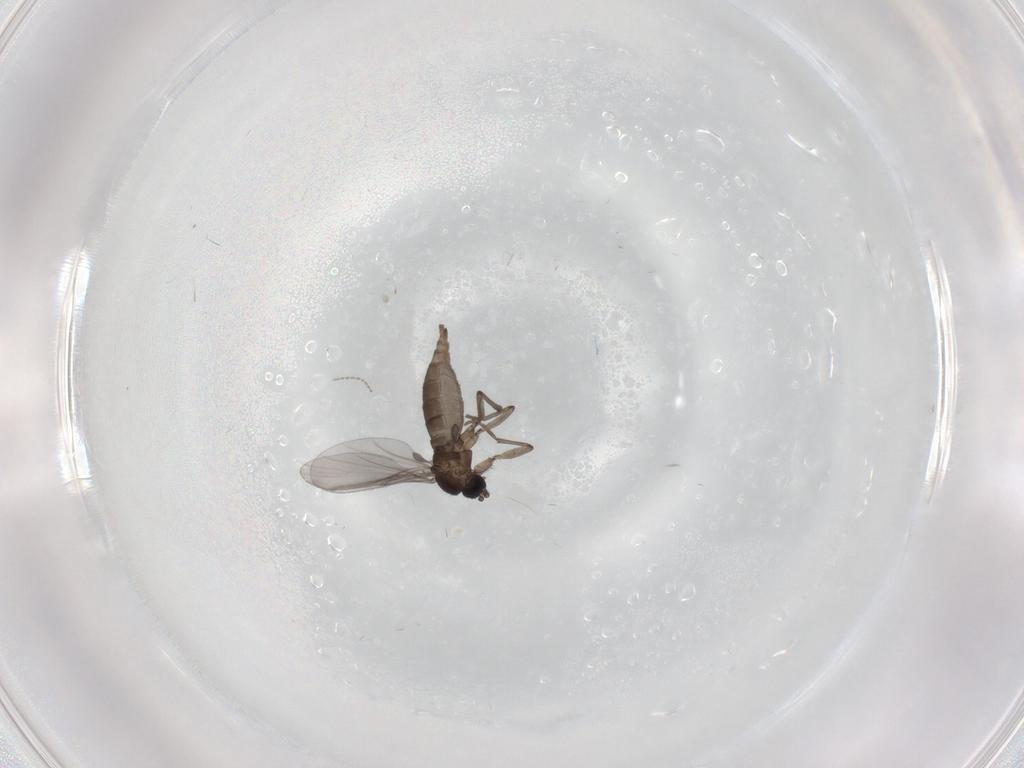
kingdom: Animalia
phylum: Arthropoda
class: Insecta
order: Diptera
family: Sciaridae
